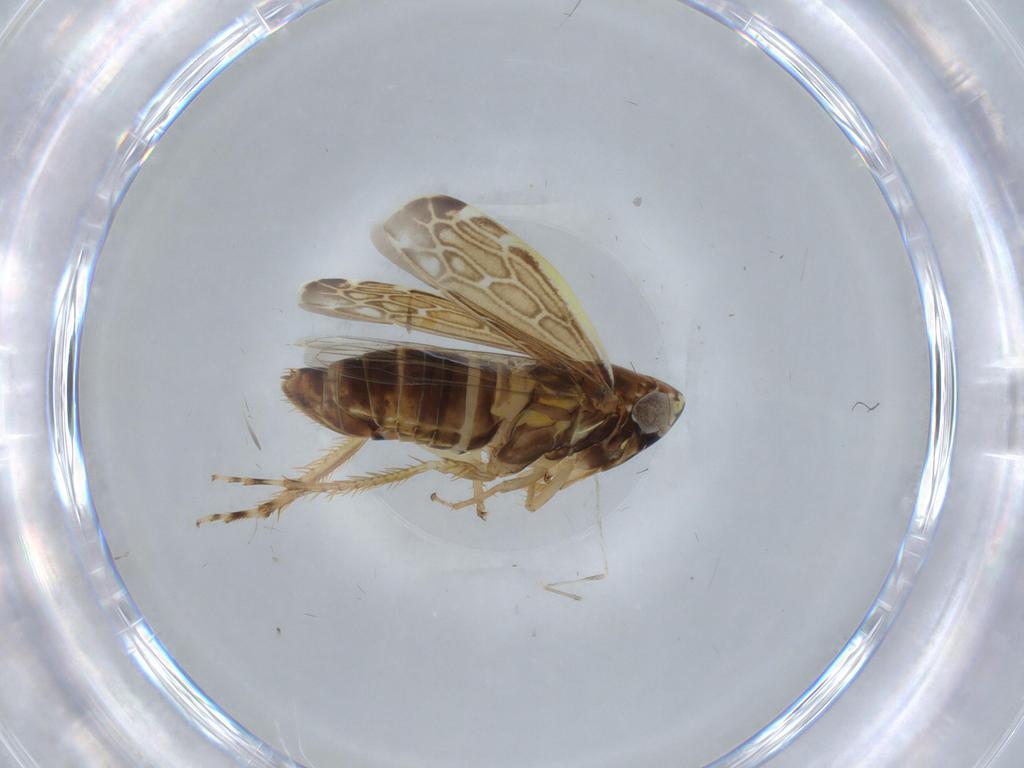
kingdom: Animalia
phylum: Arthropoda
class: Insecta
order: Hemiptera
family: Cicadellidae
